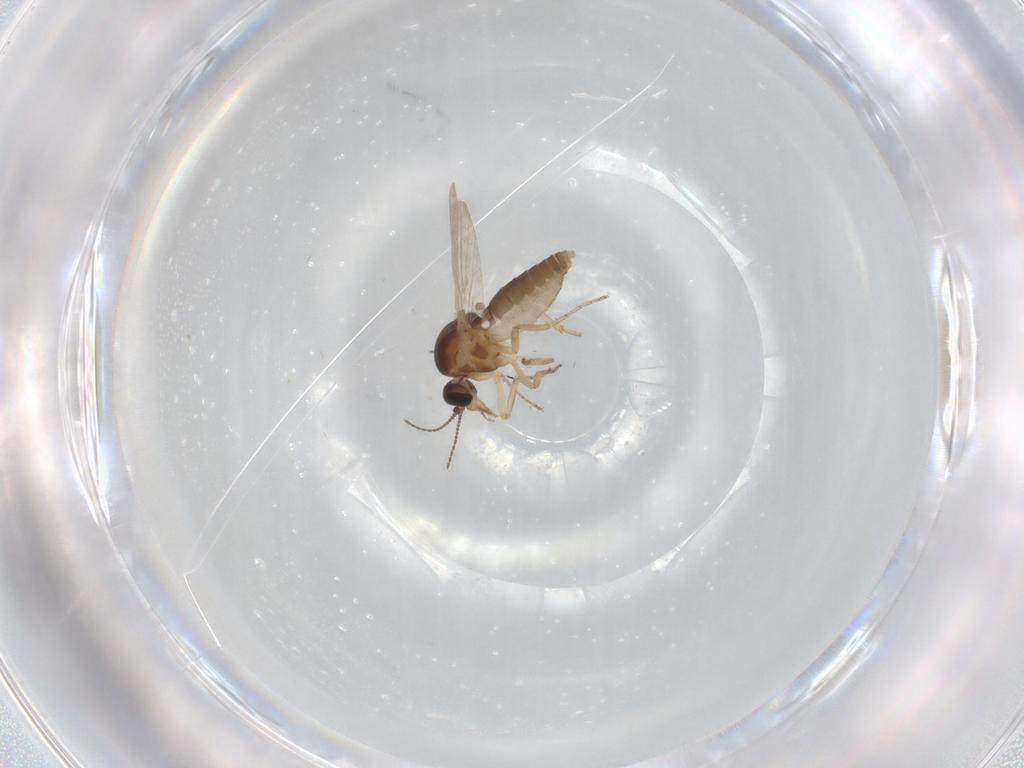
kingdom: Animalia
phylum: Arthropoda
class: Insecta
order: Diptera
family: Ceratopogonidae
